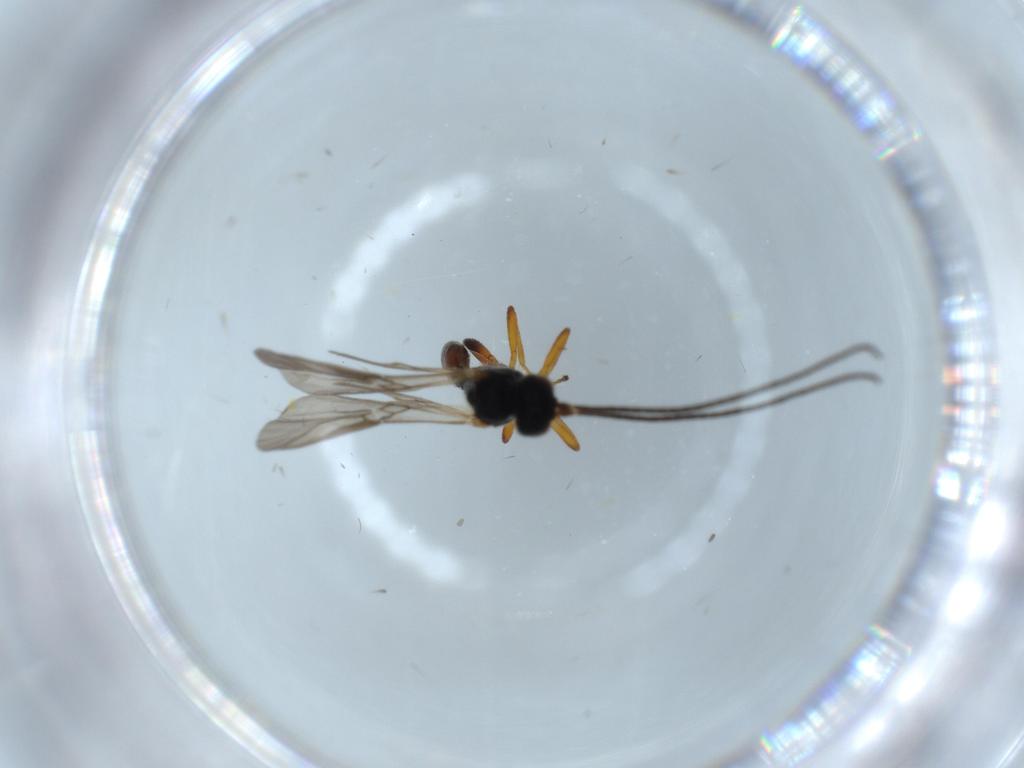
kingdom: Animalia
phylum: Arthropoda
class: Insecta
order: Hymenoptera
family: Braconidae
